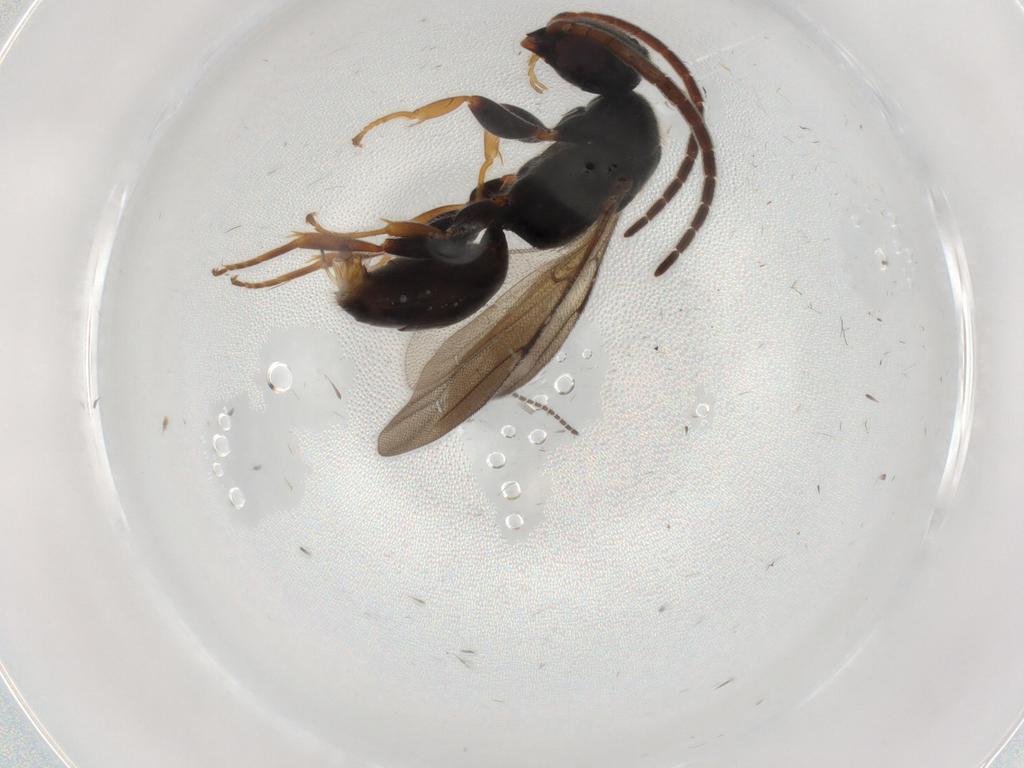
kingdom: Animalia
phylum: Arthropoda
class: Insecta
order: Hymenoptera
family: Bethylidae
